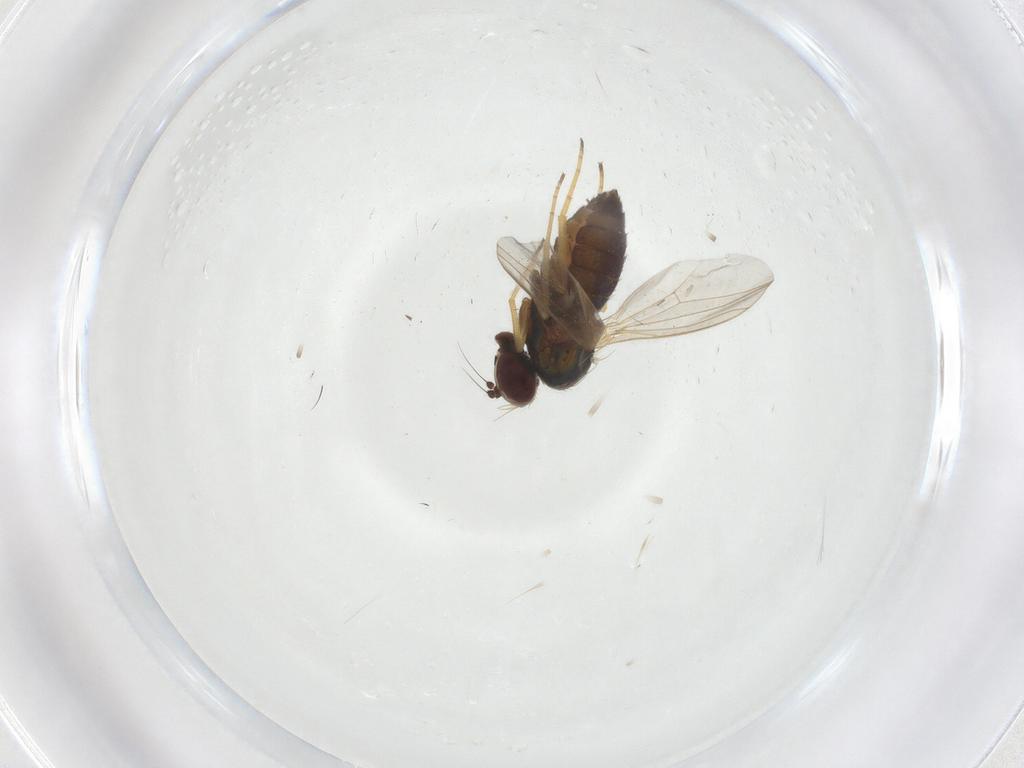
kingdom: Animalia
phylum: Arthropoda
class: Insecta
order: Diptera
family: Dolichopodidae
